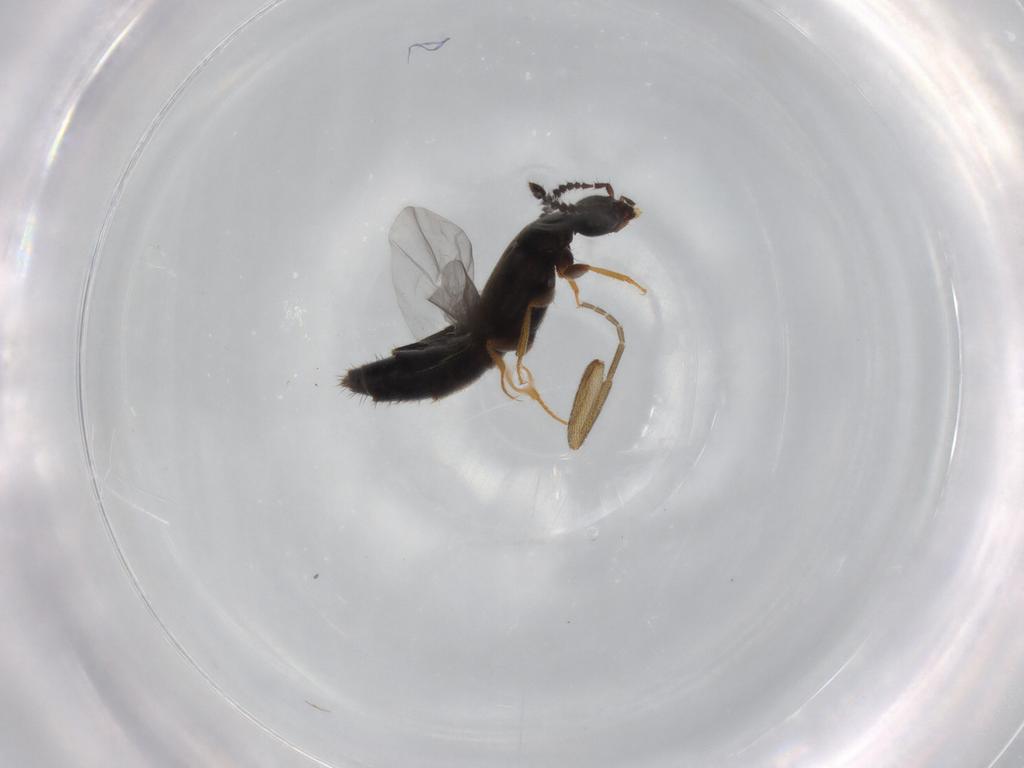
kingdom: Animalia
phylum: Arthropoda
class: Insecta
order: Coleoptera
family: Staphylinidae
